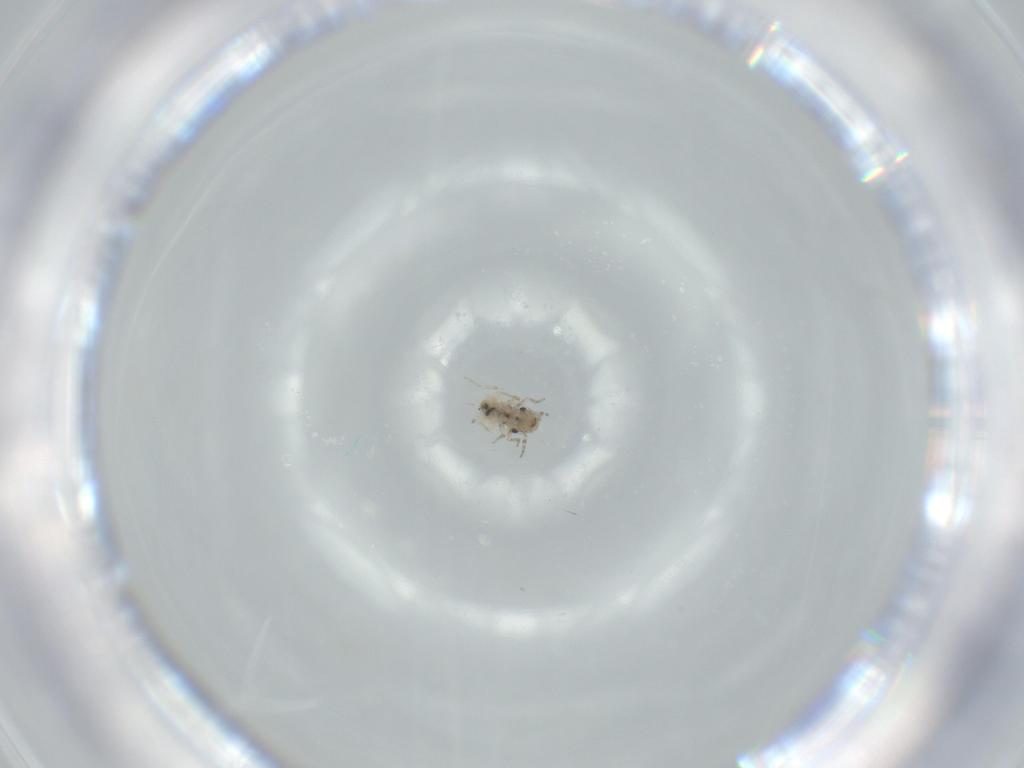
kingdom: Animalia
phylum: Arthropoda
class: Insecta
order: Psocodea
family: Lepidopsocidae
